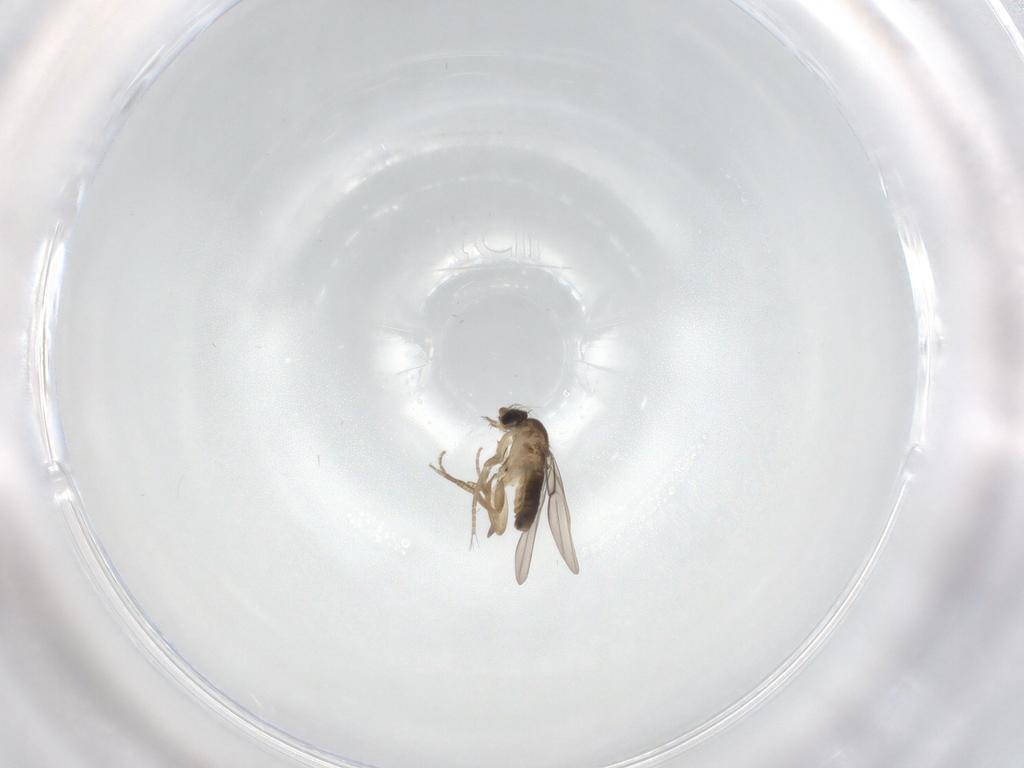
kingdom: Animalia
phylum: Arthropoda
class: Insecta
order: Diptera
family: Phoridae
